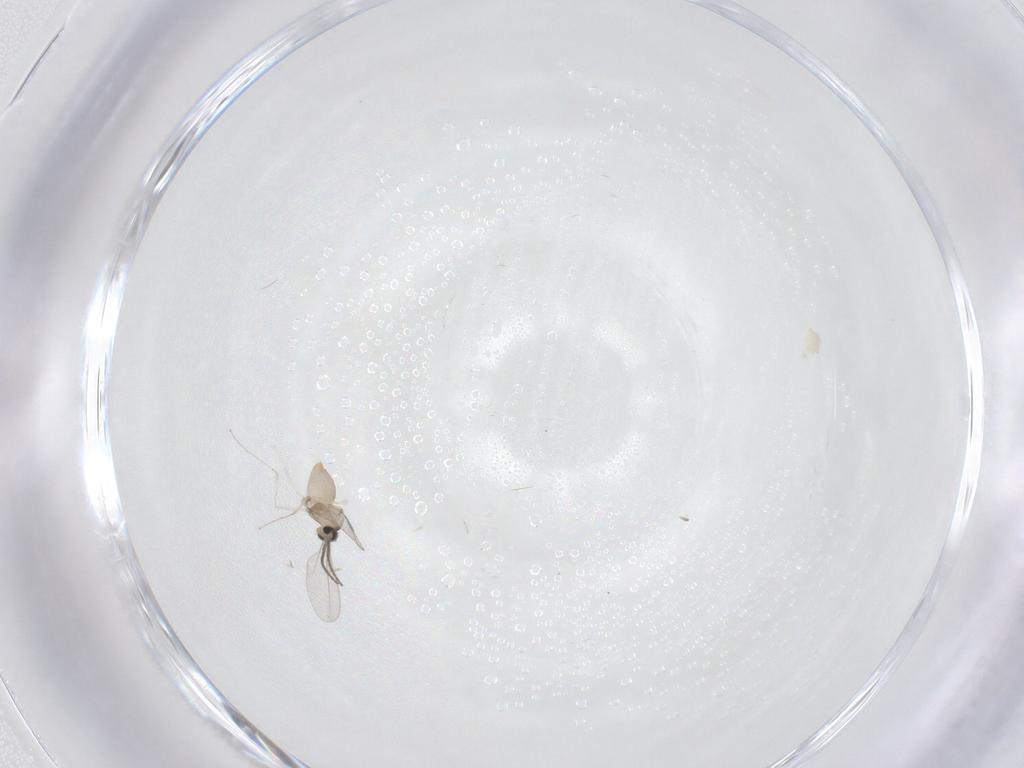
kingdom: Animalia
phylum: Arthropoda
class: Insecta
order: Diptera
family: Cecidomyiidae
